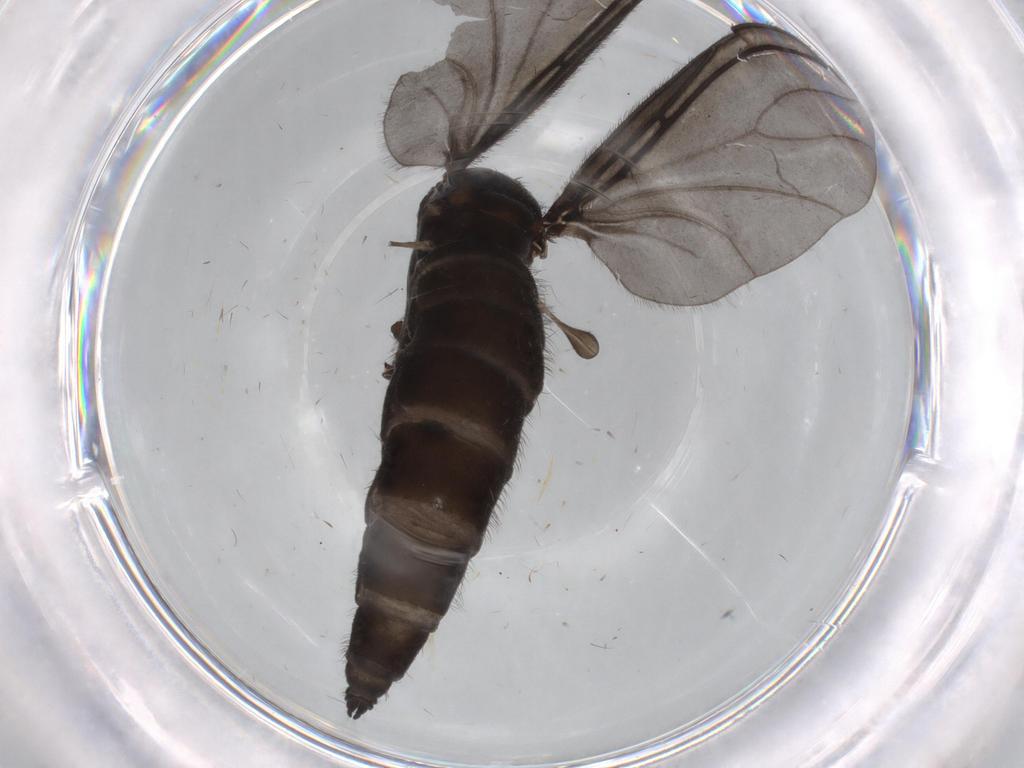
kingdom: Animalia
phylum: Arthropoda
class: Insecta
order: Diptera
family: Sciaridae
